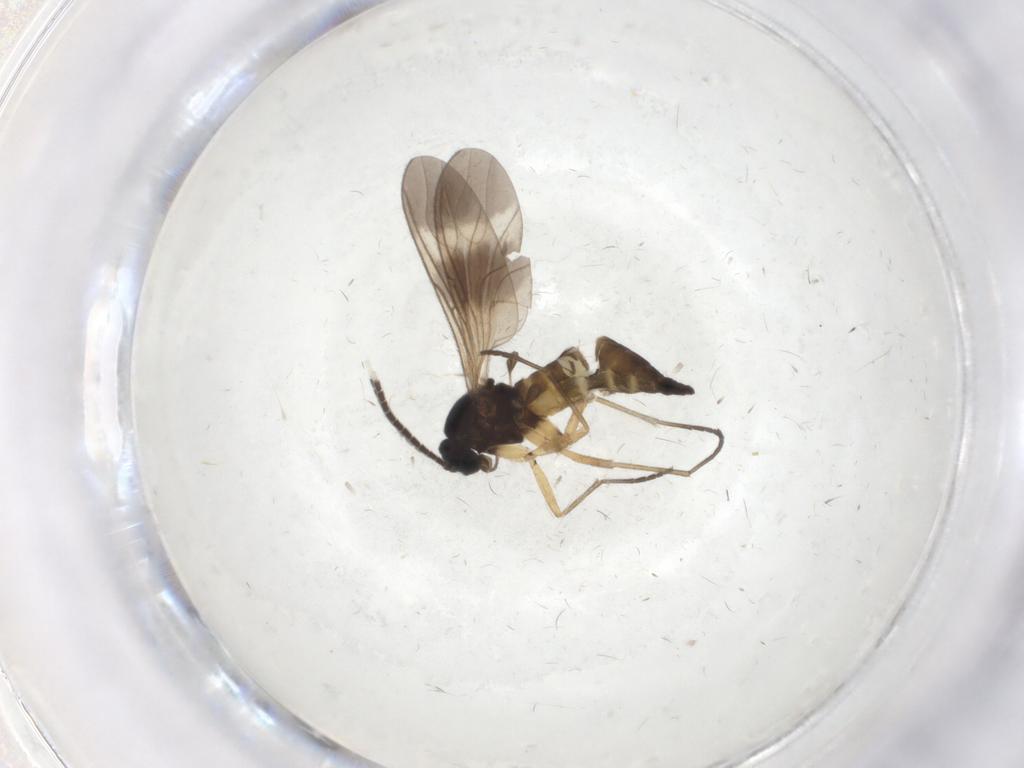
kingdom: Animalia
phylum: Arthropoda
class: Insecta
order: Diptera
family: Sciaridae
